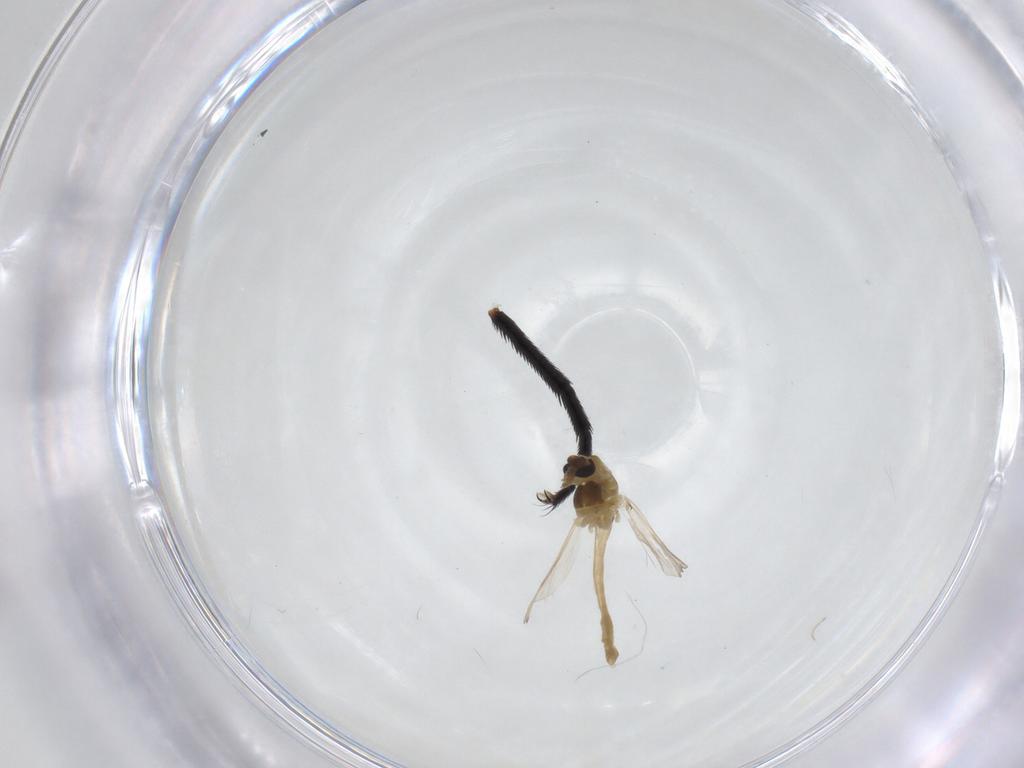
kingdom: Animalia
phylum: Arthropoda
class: Insecta
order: Diptera
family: Chironomidae
